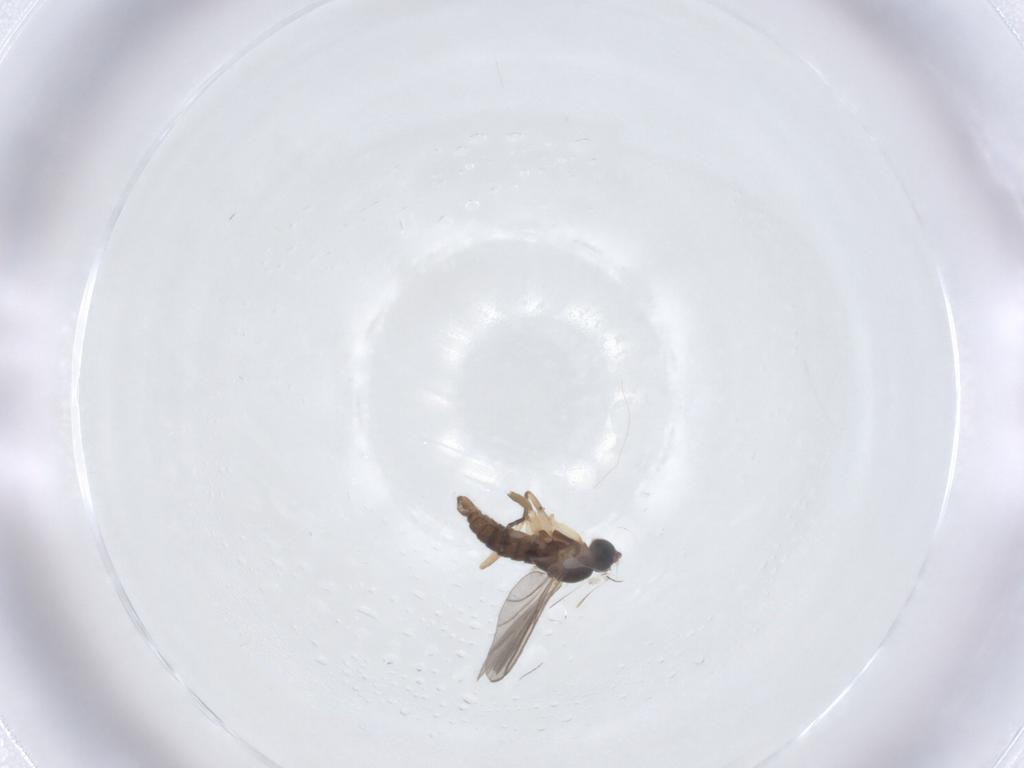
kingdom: Animalia
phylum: Arthropoda
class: Insecta
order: Diptera
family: Sciaridae
